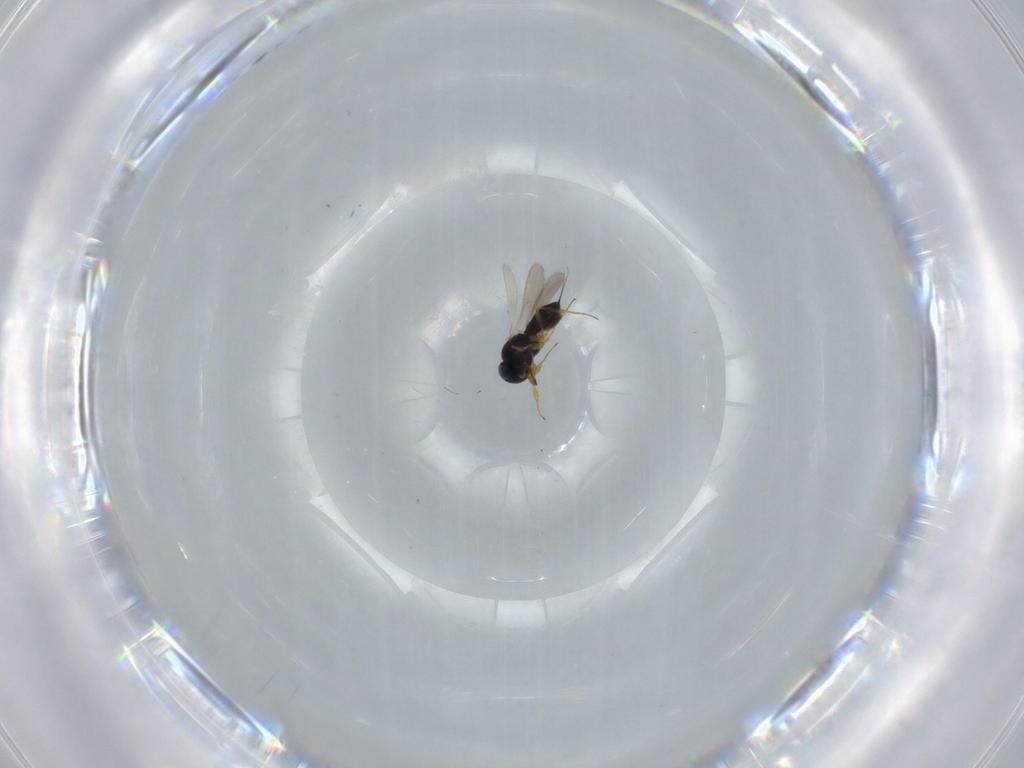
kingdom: Animalia
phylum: Arthropoda
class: Insecta
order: Hymenoptera
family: Scelionidae
